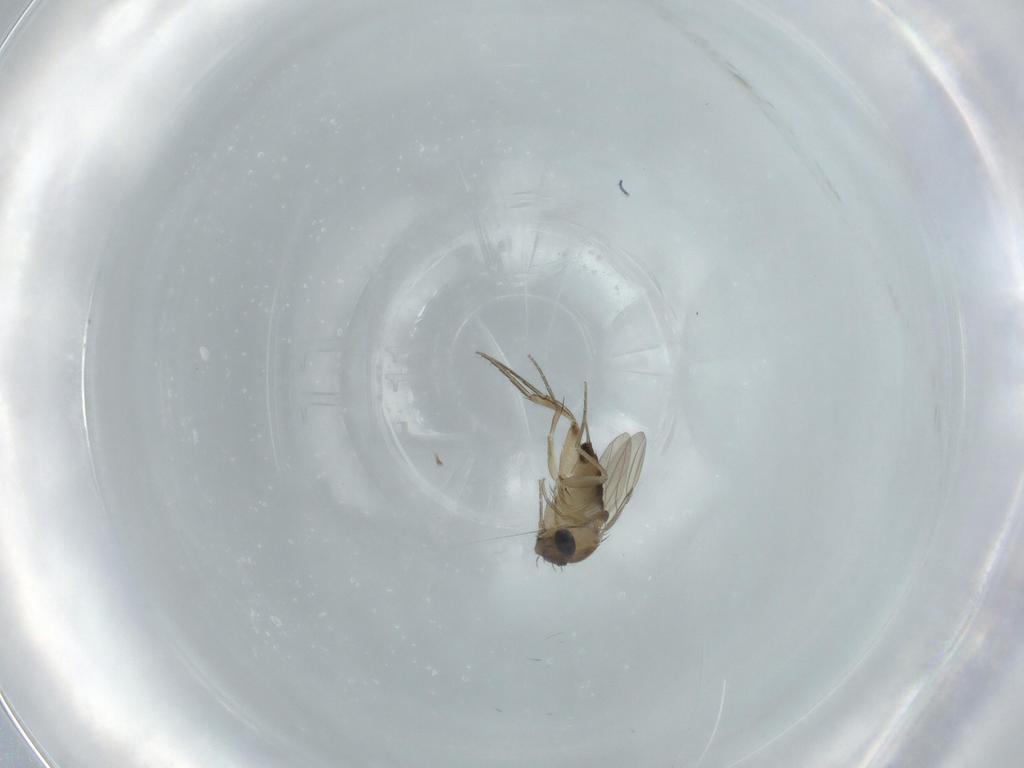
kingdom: Animalia
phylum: Arthropoda
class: Insecta
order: Diptera
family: Phoridae
